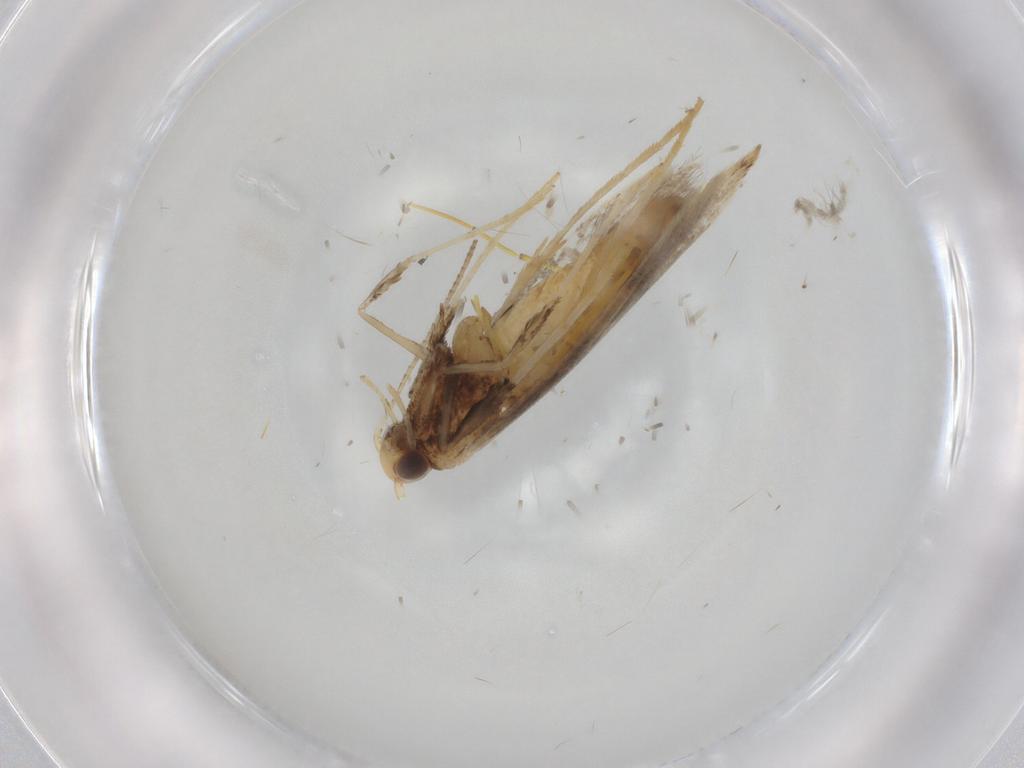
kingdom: Animalia
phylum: Arthropoda
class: Insecta
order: Lepidoptera
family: Gracillariidae
